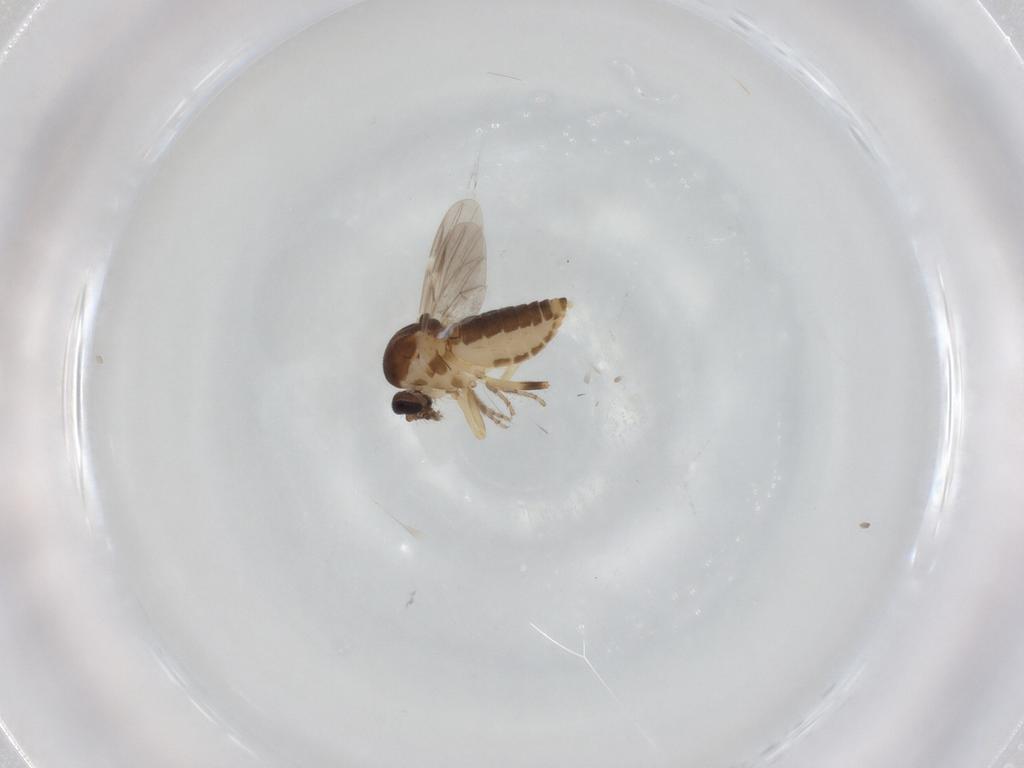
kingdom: Animalia
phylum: Arthropoda
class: Insecta
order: Diptera
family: Ceratopogonidae
